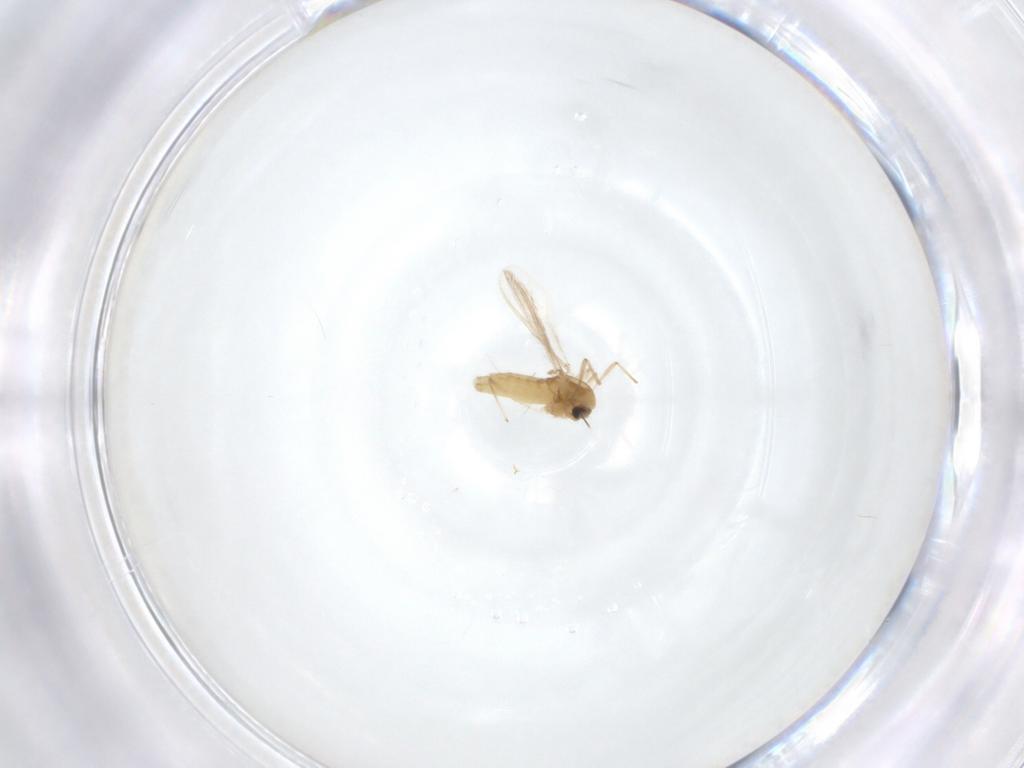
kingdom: Animalia
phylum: Arthropoda
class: Insecta
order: Diptera
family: Chironomidae
